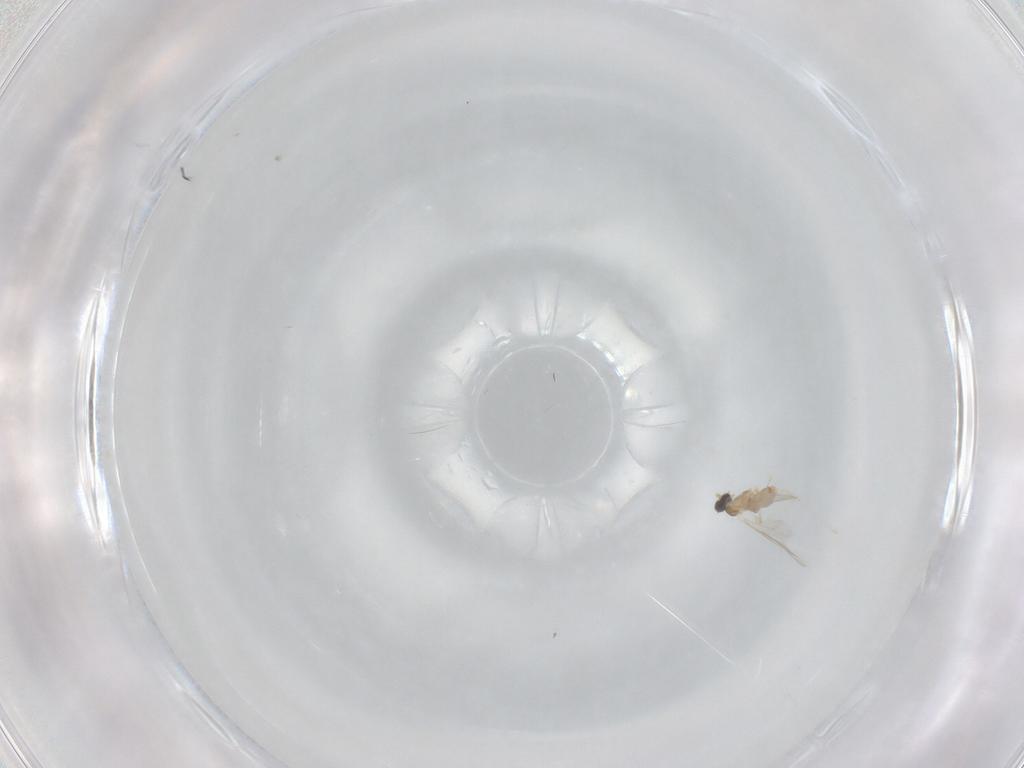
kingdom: Animalia
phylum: Arthropoda
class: Insecta
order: Diptera
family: Cecidomyiidae
